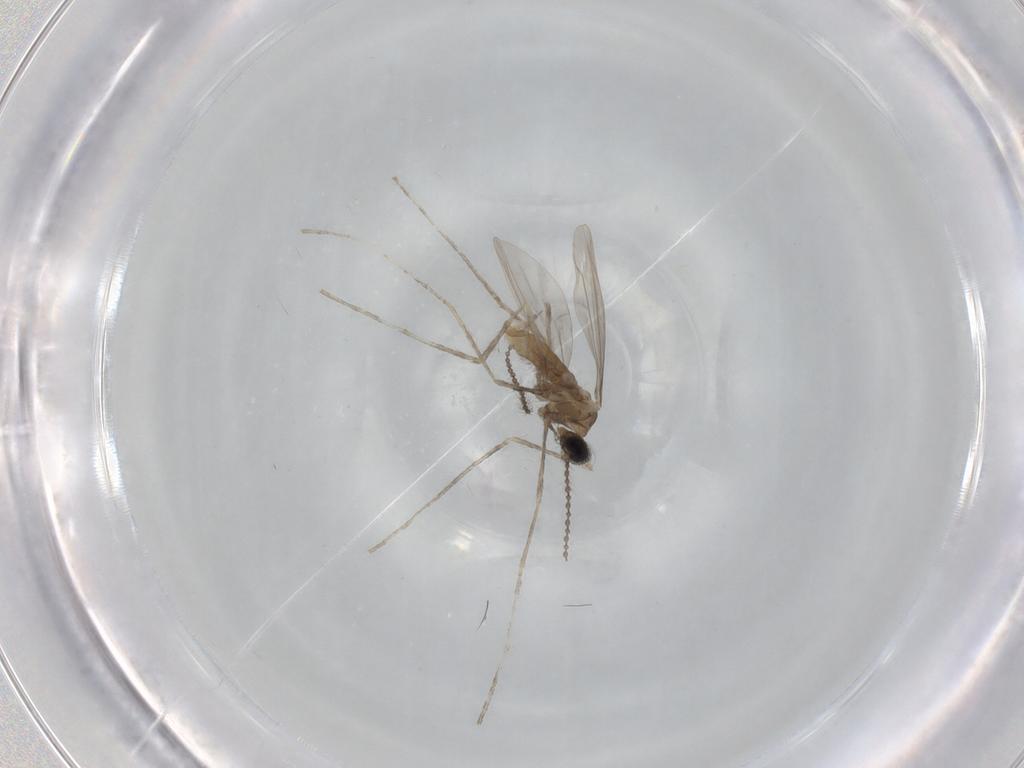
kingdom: Animalia
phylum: Arthropoda
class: Insecta
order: Diptera
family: Cecidomyiidae
